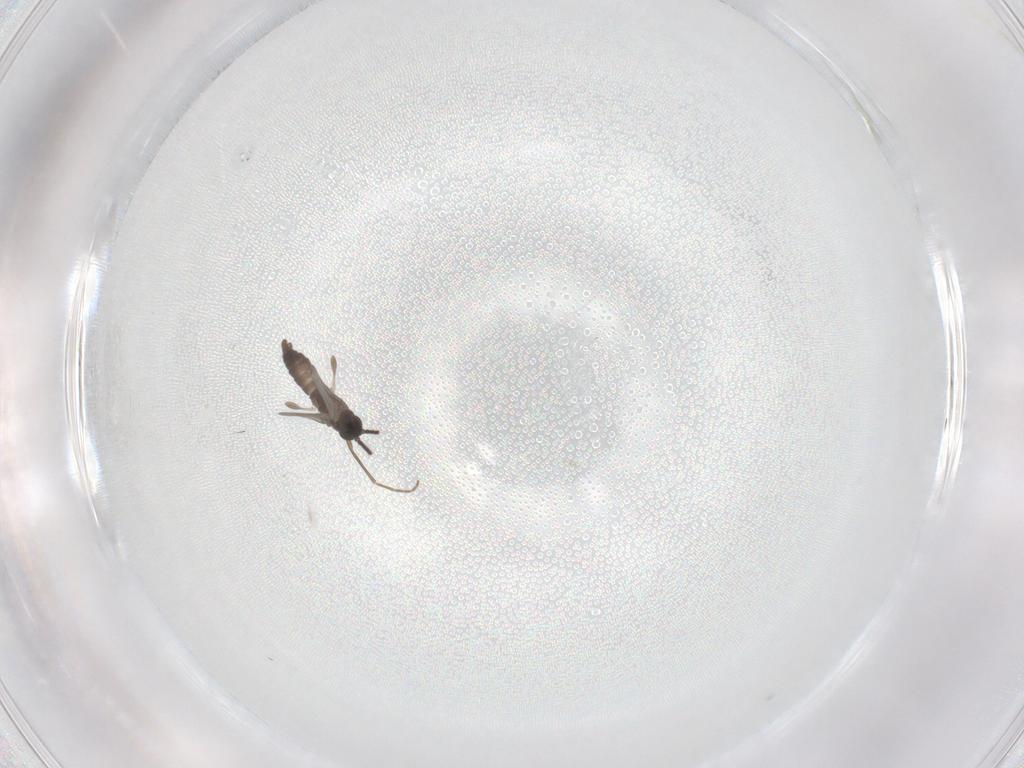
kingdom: Animalia
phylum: Arthropoda
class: Insecta
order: Diptera
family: Sciaridae
